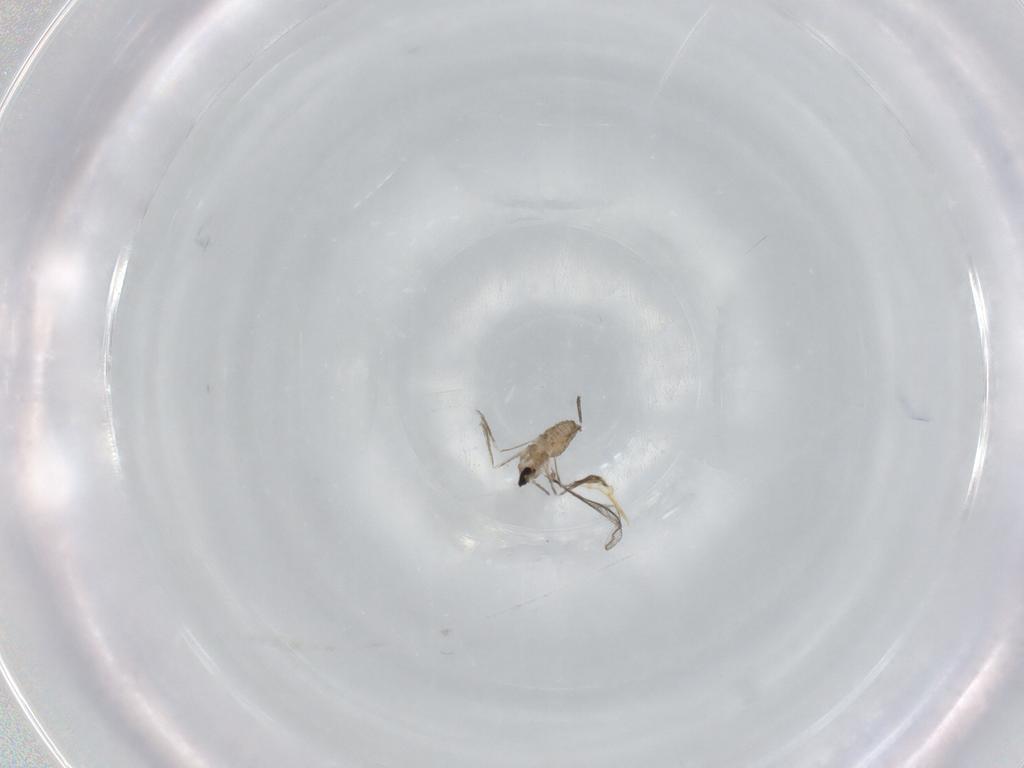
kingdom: Animalia
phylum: Arthropoda
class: Insecta
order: Diptera
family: Cecidomyiidae
